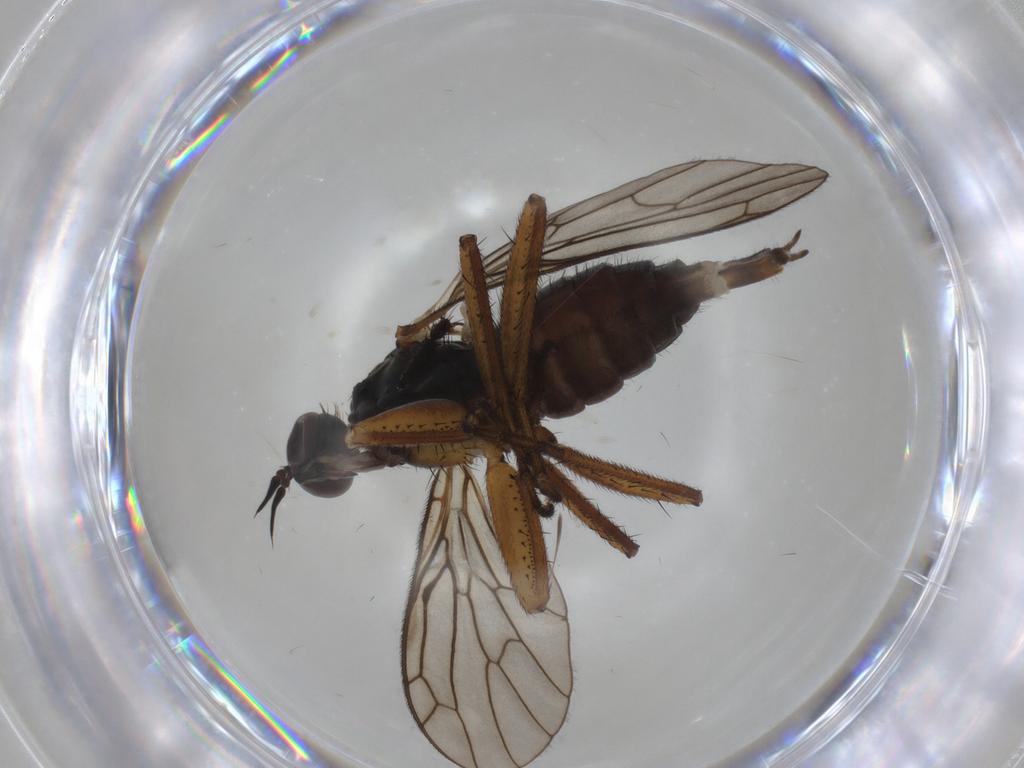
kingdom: Animalia
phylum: Arthropoda
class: Insecta
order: Diptera
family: Empididae
